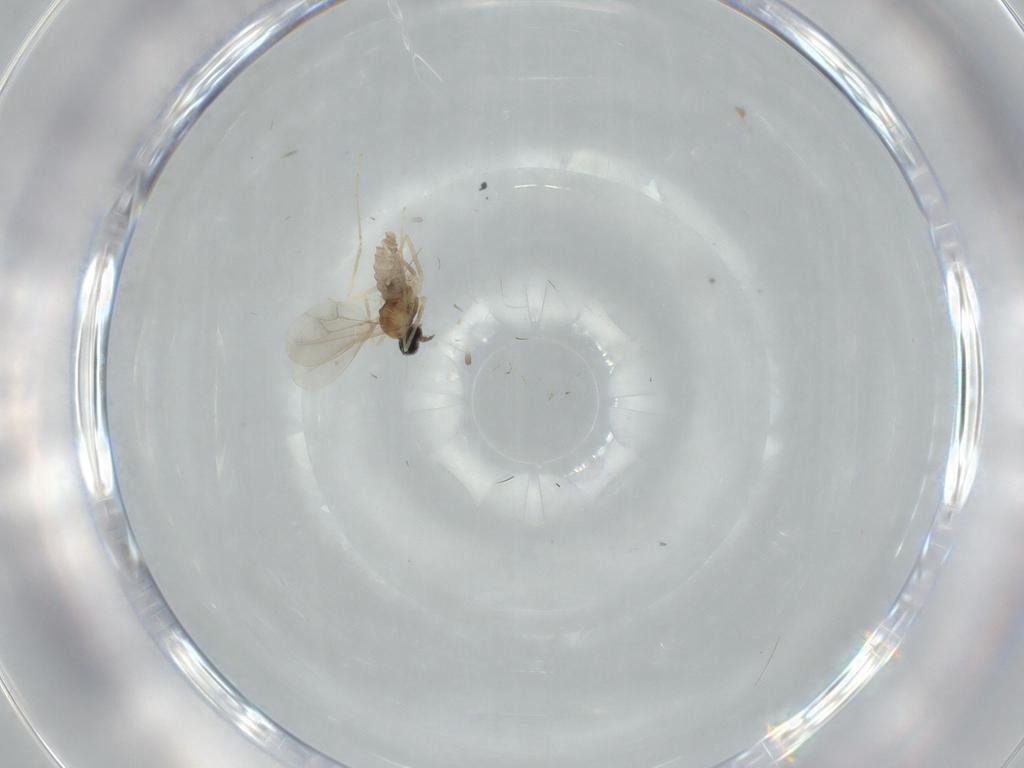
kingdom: Animalia
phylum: Arthropoda
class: Insecta
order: Diptera
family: Cecidomyiidae
